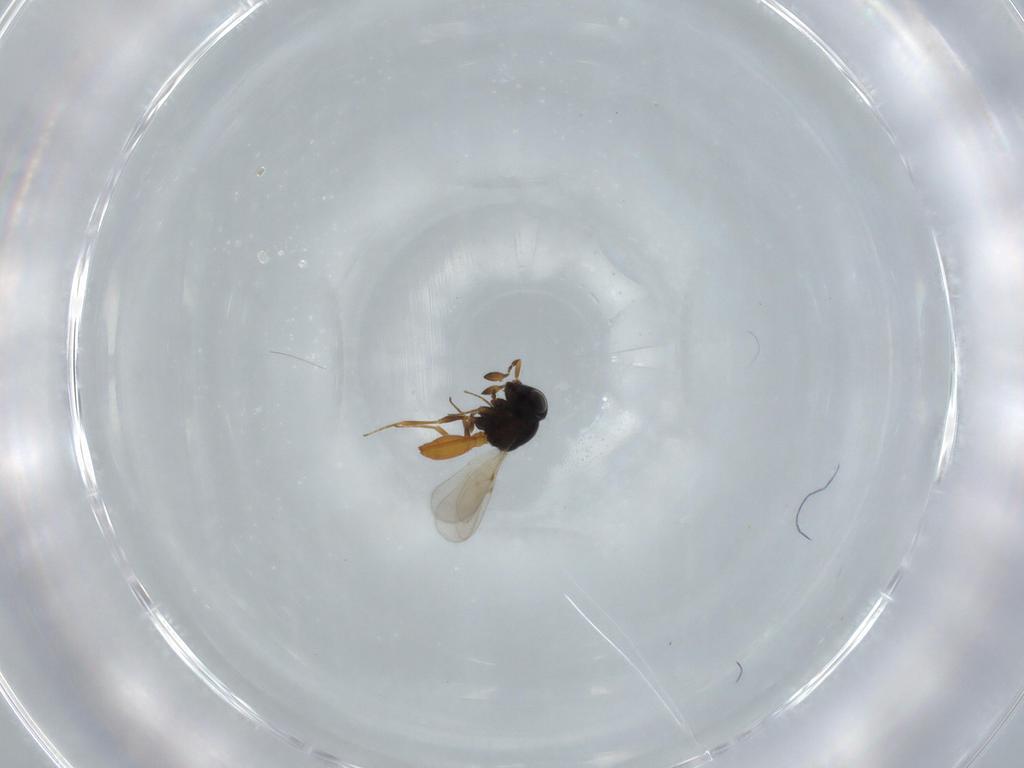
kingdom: Animalia
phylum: Arthropoda
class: Insecta
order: Hymenoptera
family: Scelionidae
